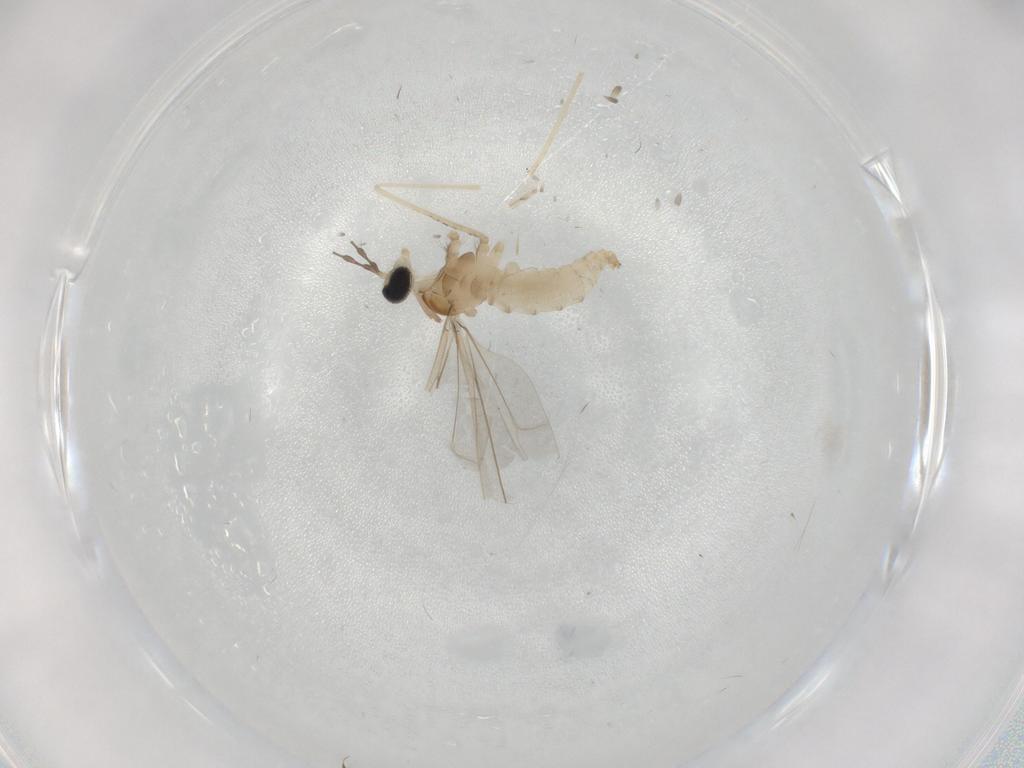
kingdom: Animalia
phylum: Arthropoda
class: Insecta
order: Diptera
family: Cecidomyiidae
